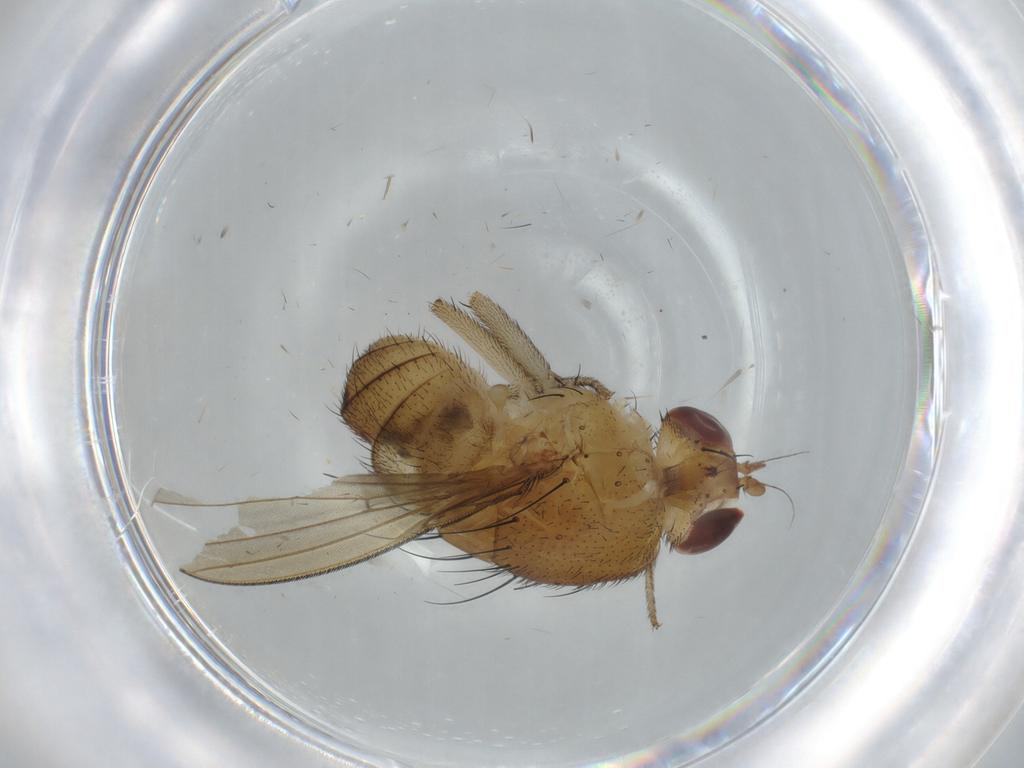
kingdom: Animalia
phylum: Arthropoda
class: Insecta
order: Diptera
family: Lauxaniidae
